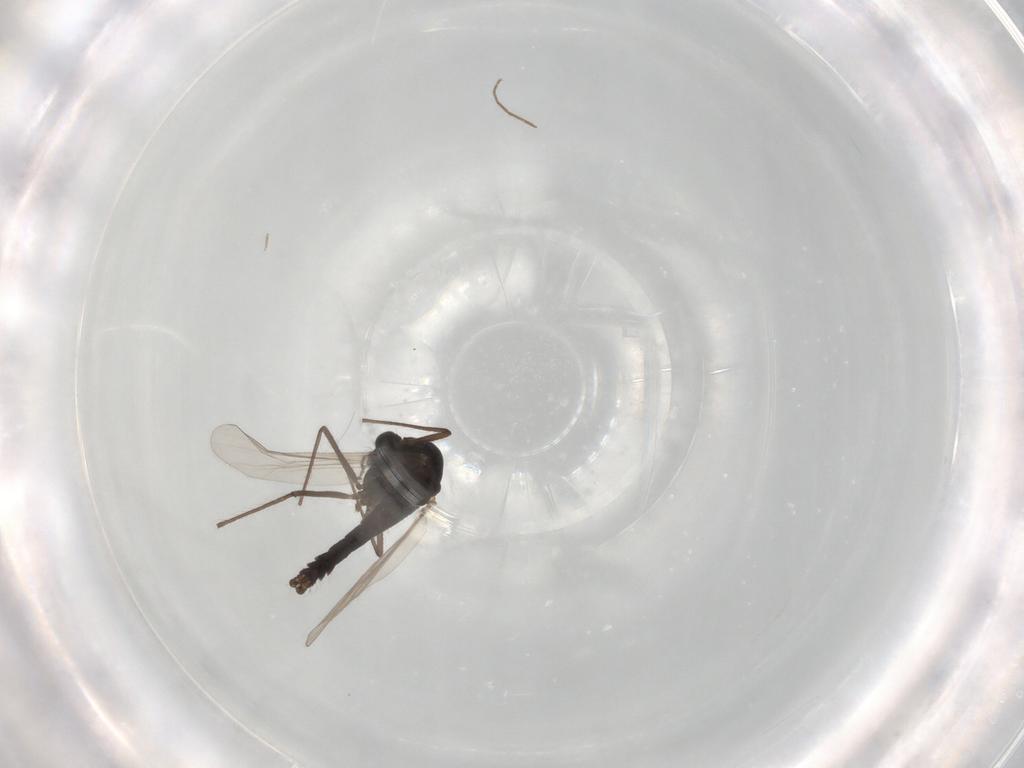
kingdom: Animalia
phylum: Arthropoda
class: Insecta
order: Diptera
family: Chironomidae
